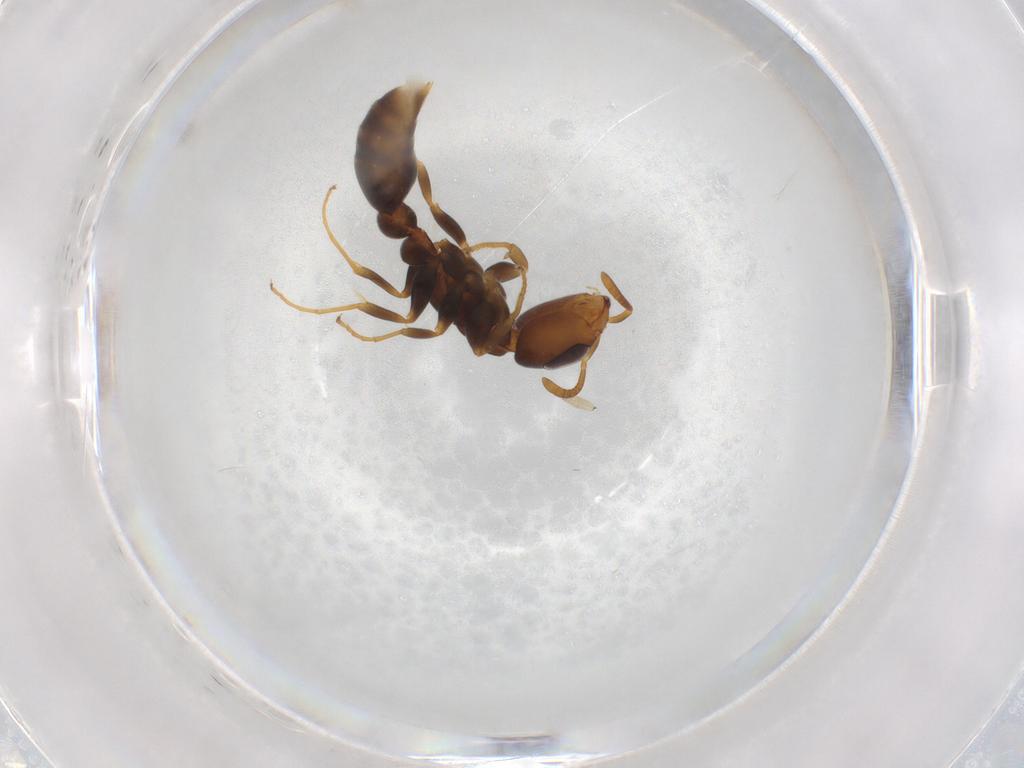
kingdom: Animalia
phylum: Arthropoda
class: Insecta
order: Hymenoptera
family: Formicidae
